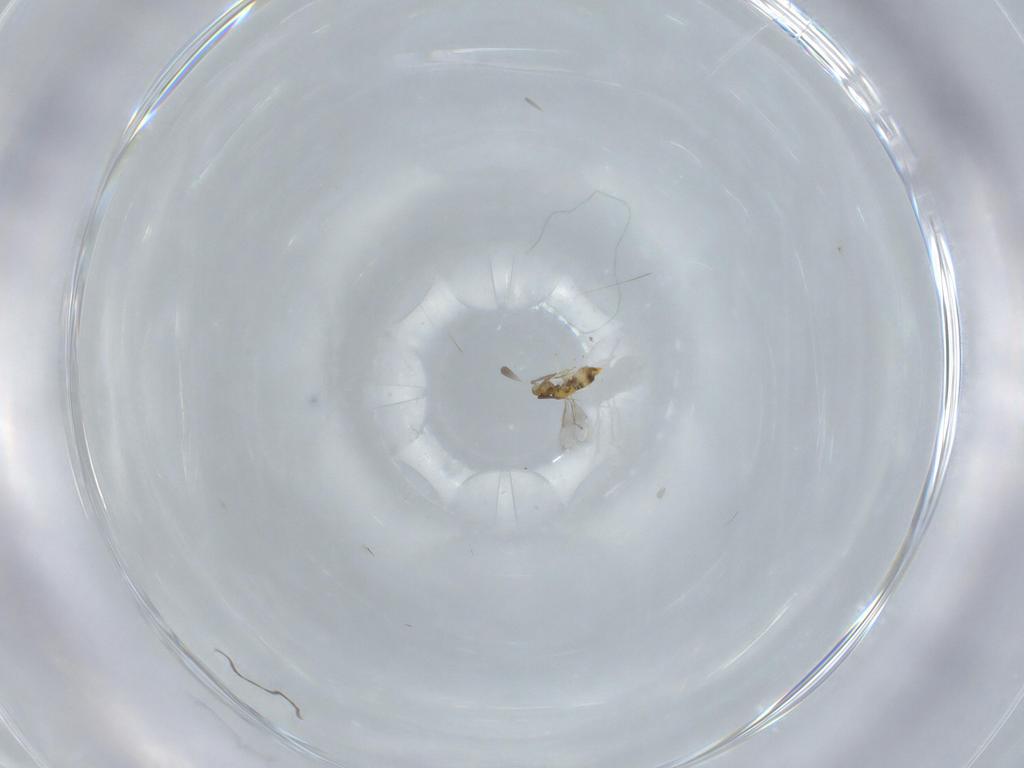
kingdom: Animalia
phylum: Arthropoda
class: Insecta
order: Hymenoptera
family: Aphelinidae
